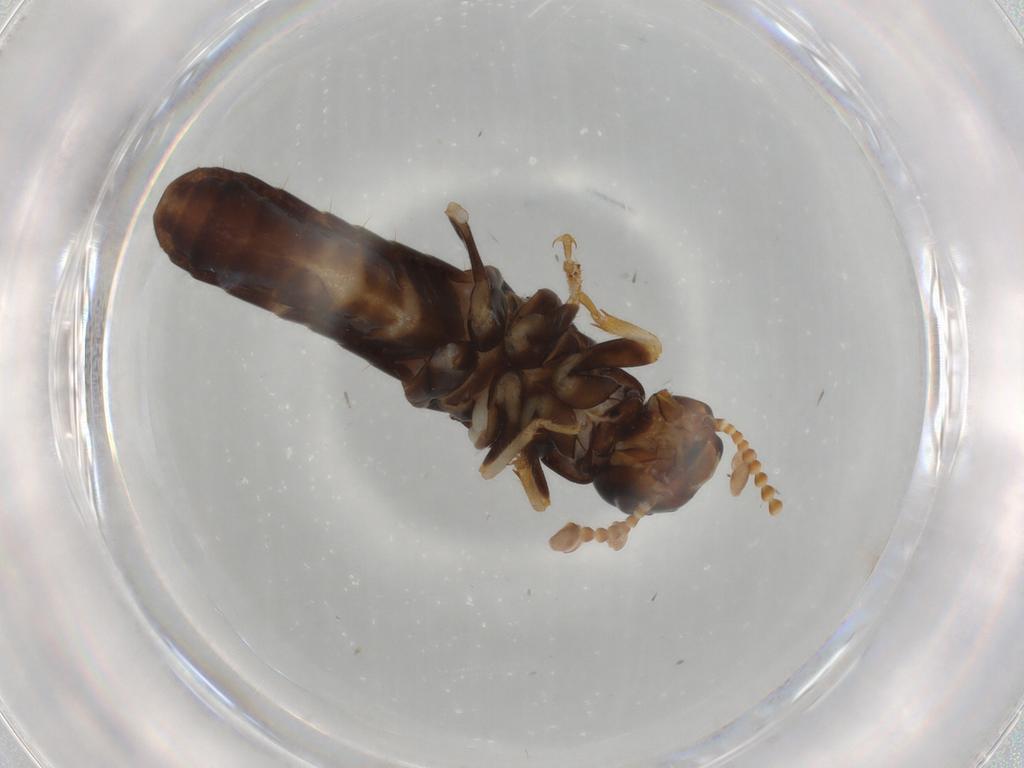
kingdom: Animalia
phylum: Arthropoda
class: Insecta
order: Blattodea
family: Kalotermitidae
